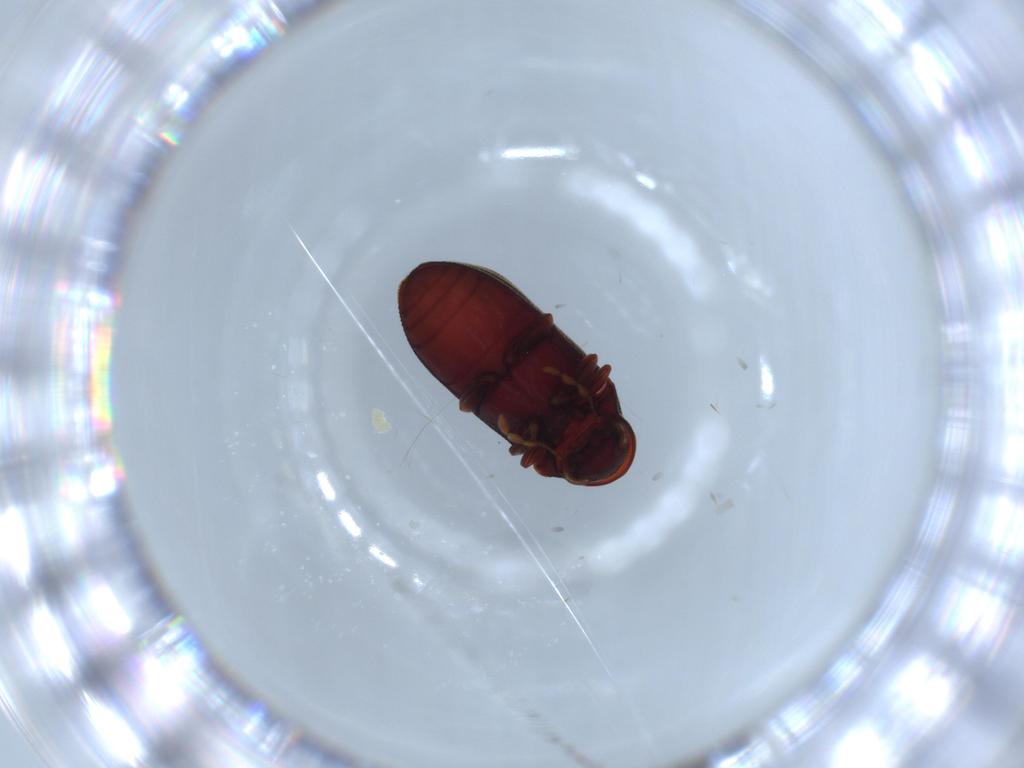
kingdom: Animalia
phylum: Arthropoda
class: Insecta
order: Coleoptera
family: Ptinidae
